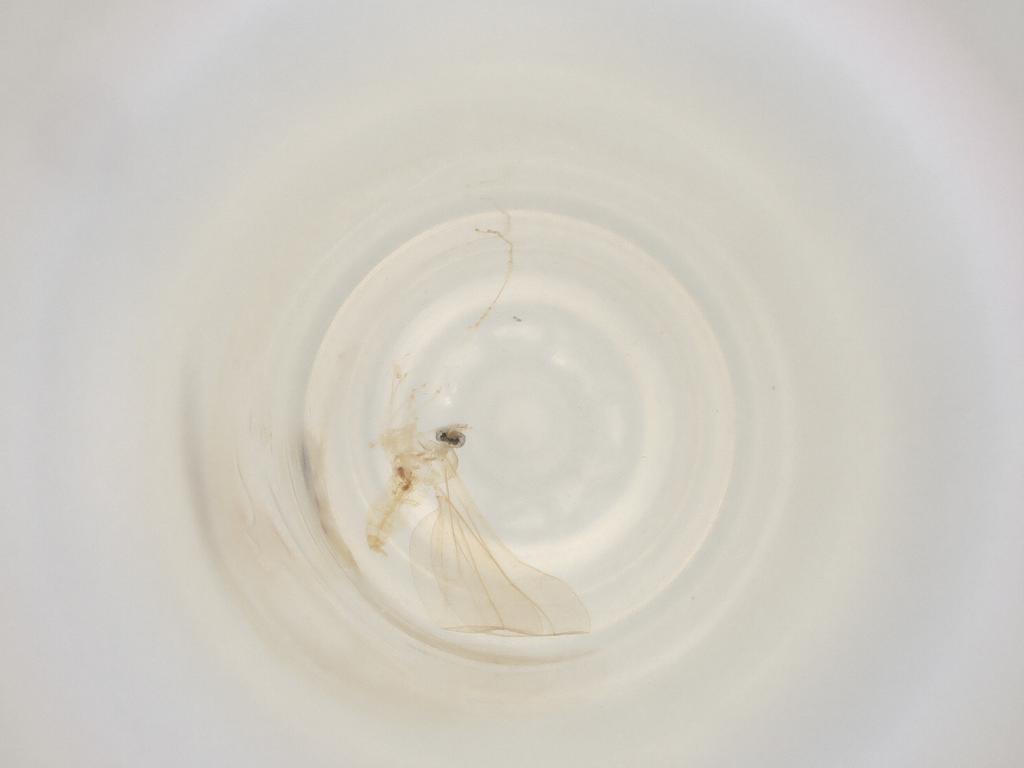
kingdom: Animalia
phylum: Arthropoda
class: Insecta
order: Diptera
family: Cecidomyiidae
